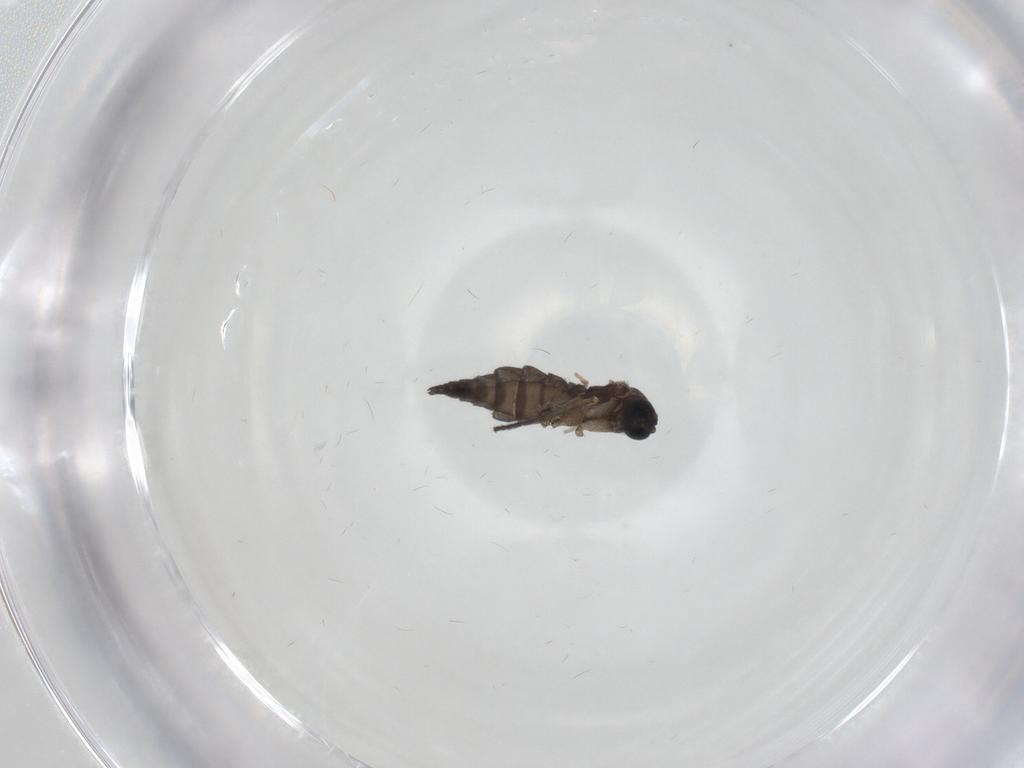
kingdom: Animalia
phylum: Arthropoda
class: Insecta
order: Diptera
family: Sciaridae
